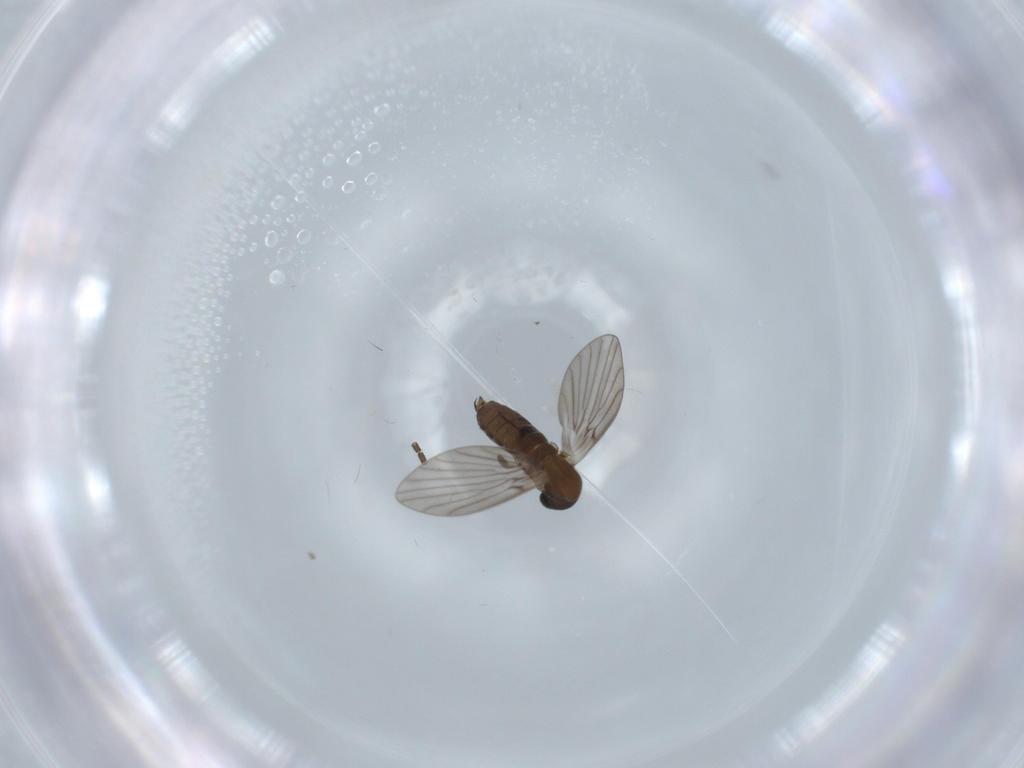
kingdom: Animalia
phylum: Arthropoda
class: Insecta
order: Diptera
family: Psychodidae
